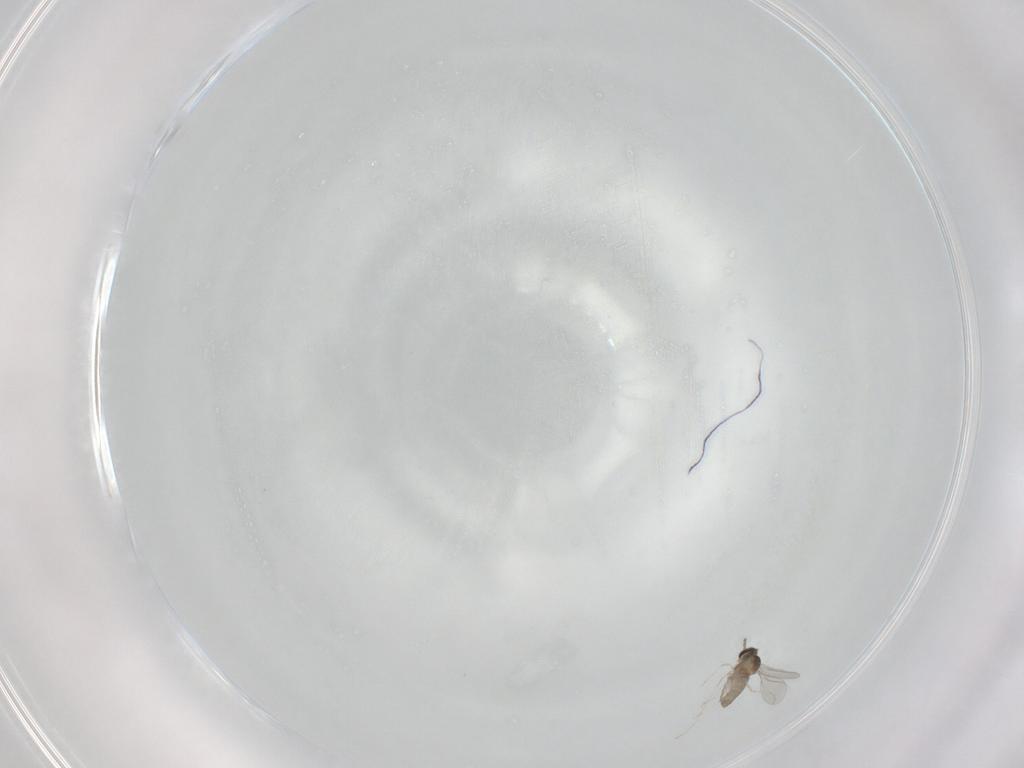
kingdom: Animalia
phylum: Arthropoda
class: Insecta
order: Diptera
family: Cecidomyiidae
